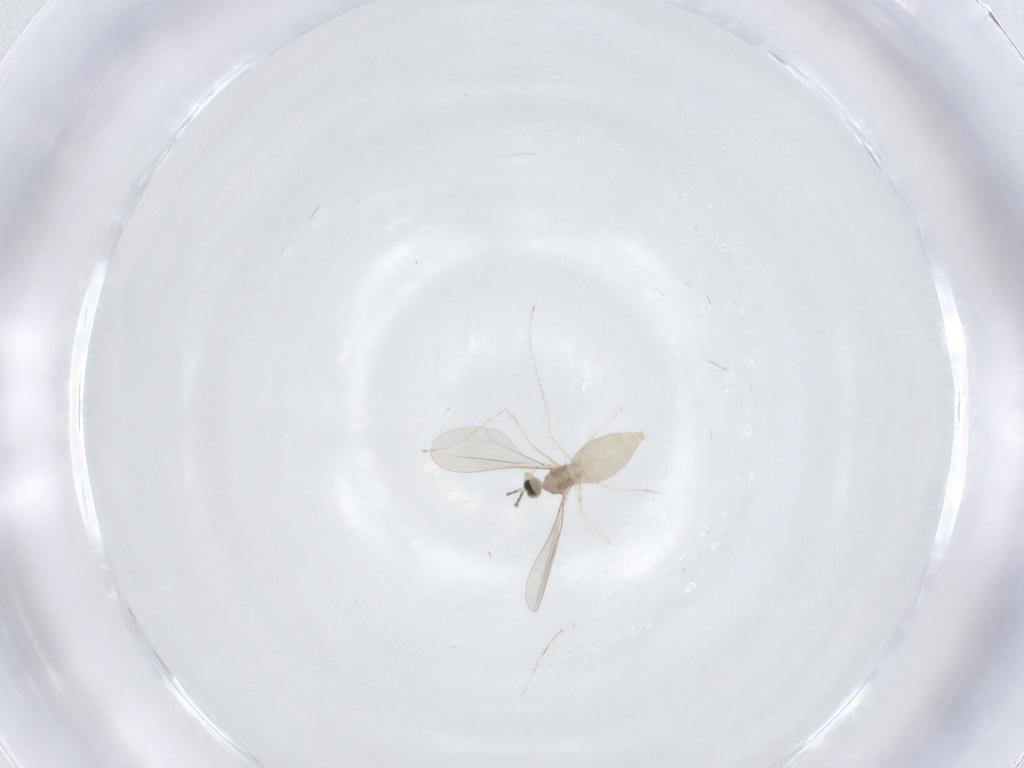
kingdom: Animalia
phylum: Arthropoda
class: Insecta
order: Diptera
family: Cecidomyiidae
